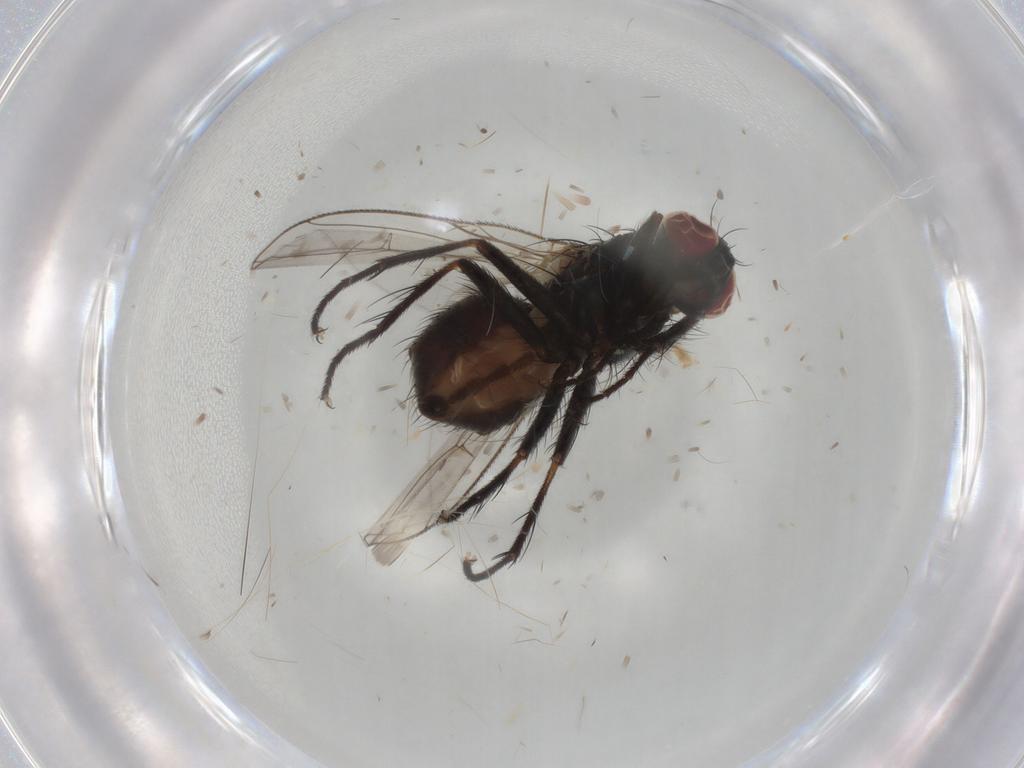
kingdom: Animalia
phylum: Arthropoda
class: Insecta
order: Diptera
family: Muscidae
